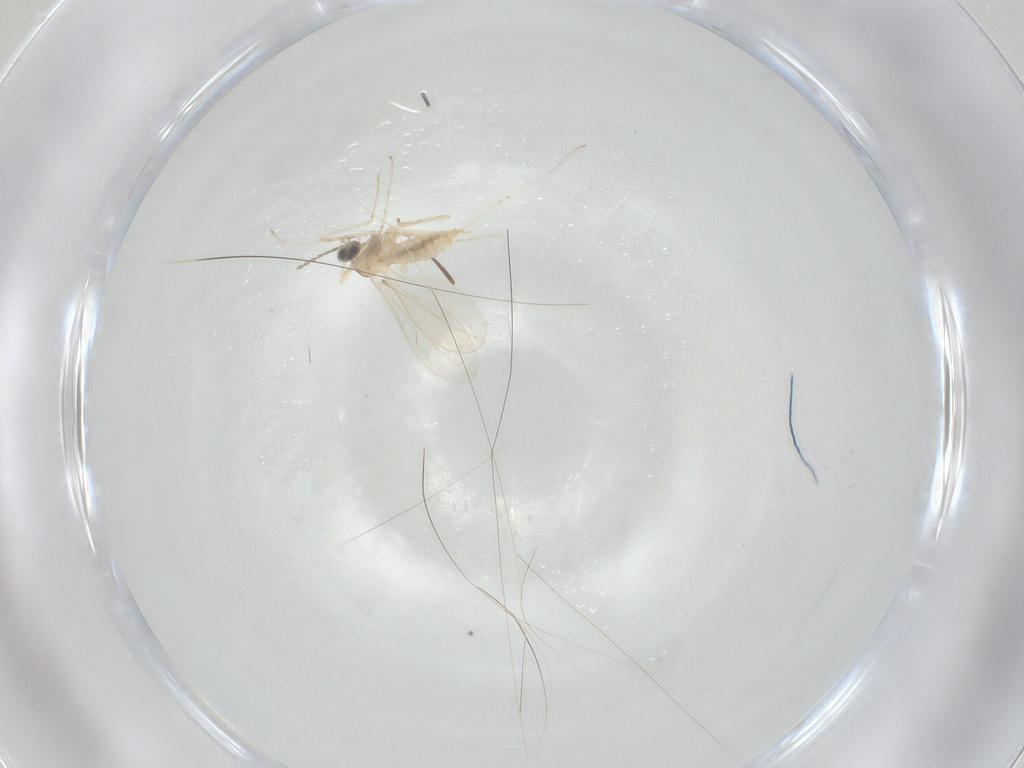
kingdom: Animalia
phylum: Arthropoda
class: Insecta
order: Diptera
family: Cecidomyiidae
